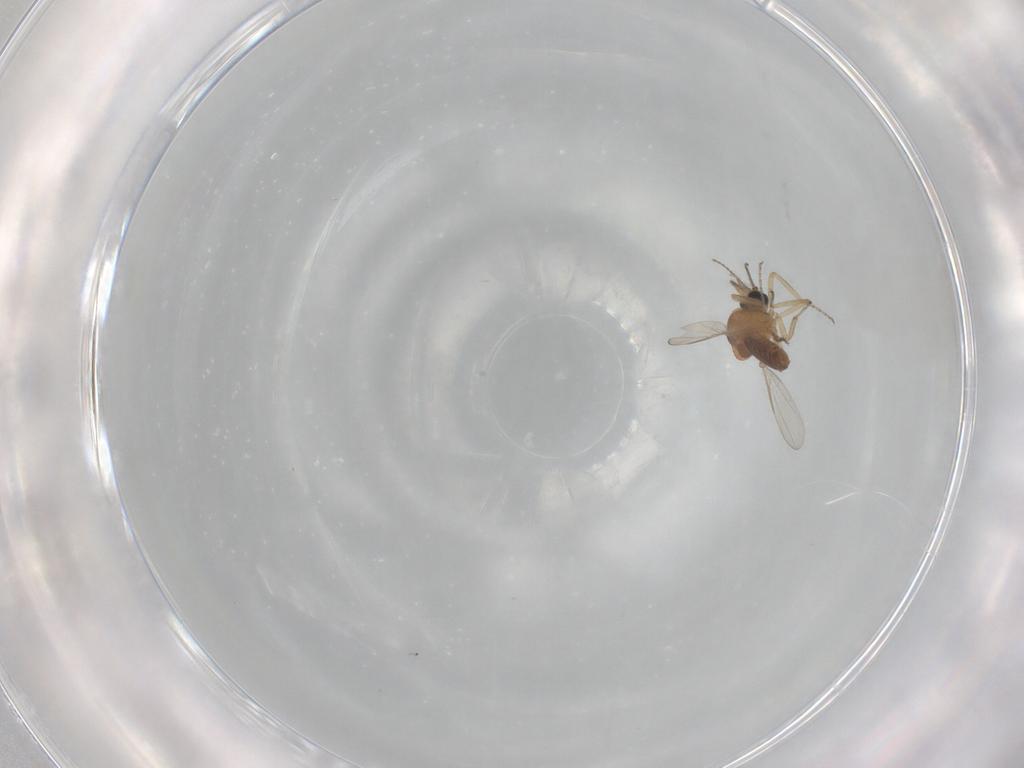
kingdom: Animalia
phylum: Arthropoda
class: Insecta
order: Diptera
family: Ceratopogonidae
